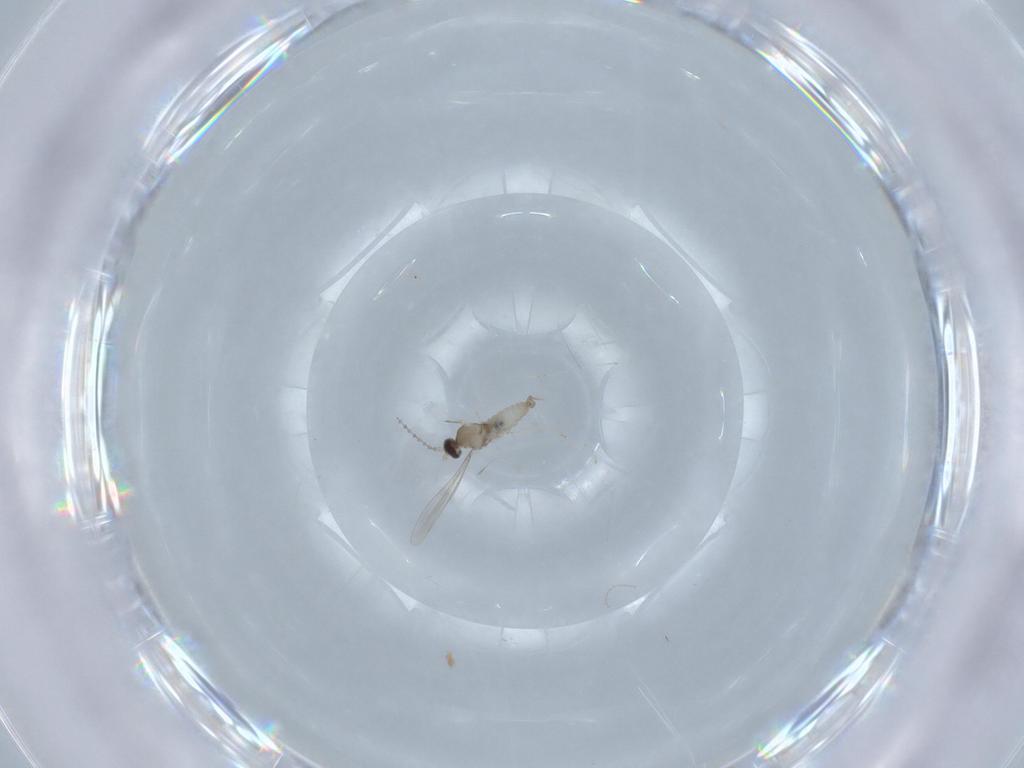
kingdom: Animalia
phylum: Arthropoda
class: Insecta
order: Diptera
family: Cecidomyiidae
